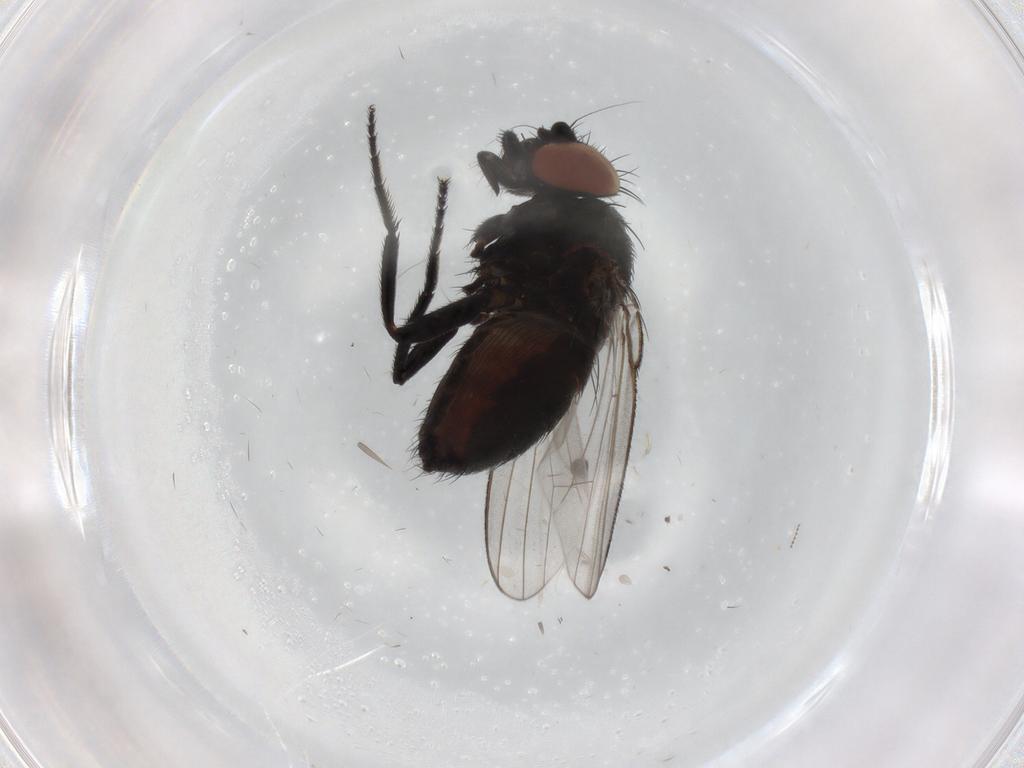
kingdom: Animalia
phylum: Arthropoda
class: Insecta
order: Diptera
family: Milichiidae
